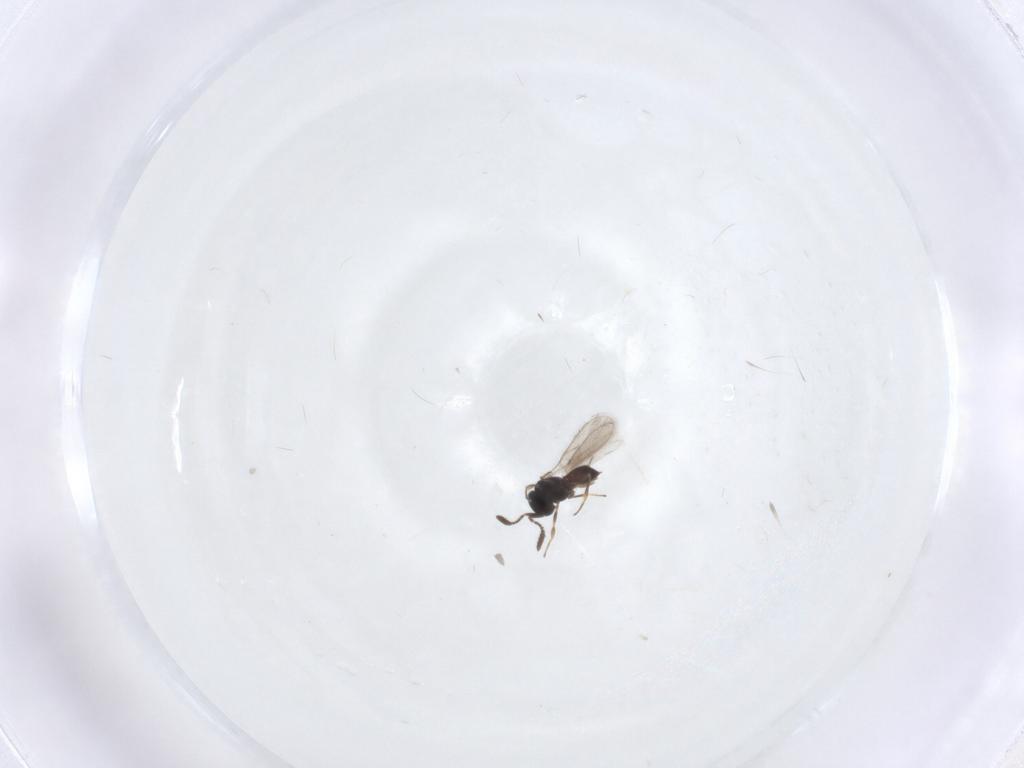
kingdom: Animalia
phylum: Arthropoda
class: Insecta
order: Hymenoptera
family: Scelionidae
